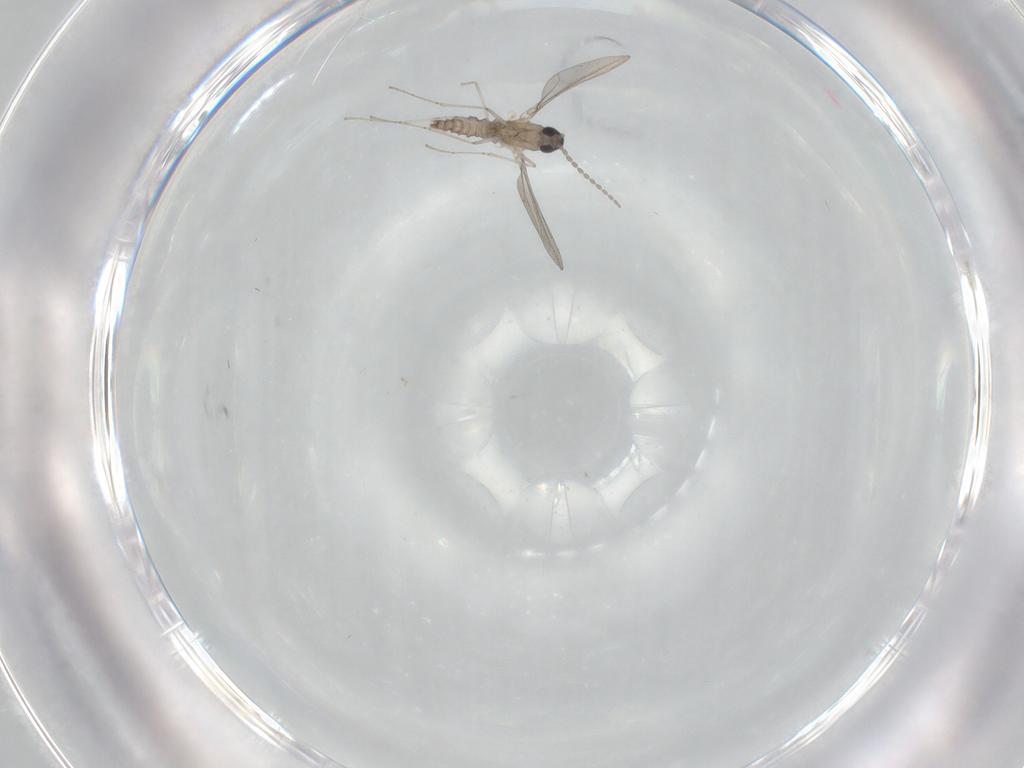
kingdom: Animalia
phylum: Arthropoda
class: Insecta
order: Diptera
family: Cecidomyiidae
